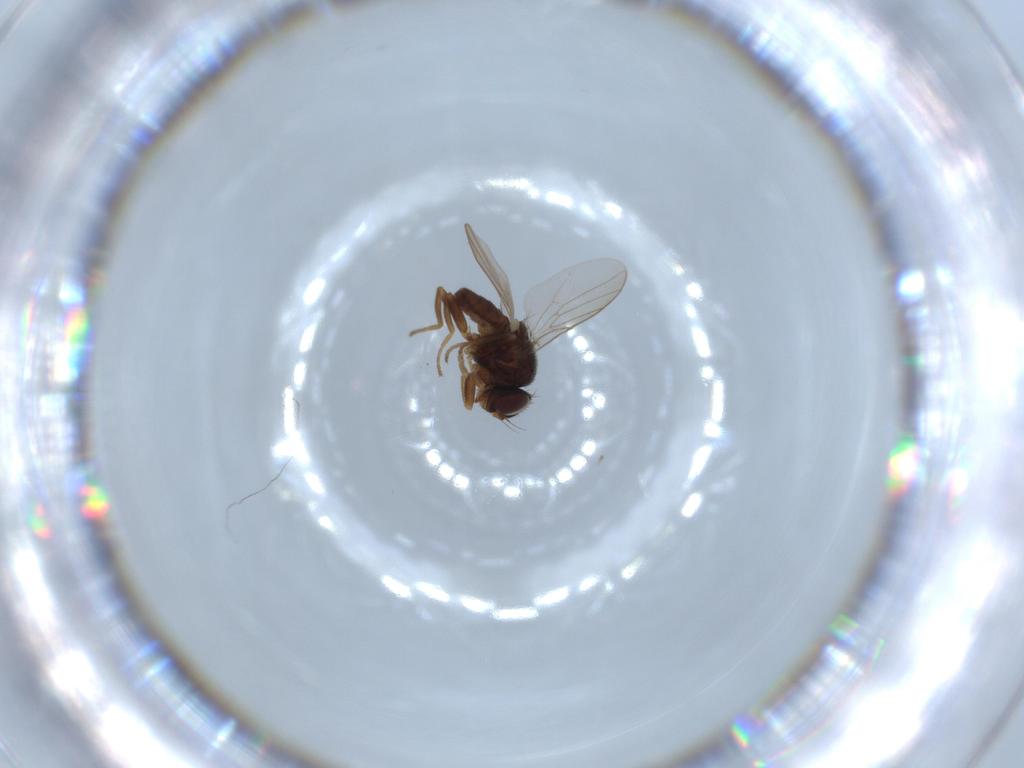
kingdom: Animalia
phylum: Arthropoda
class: Insecta
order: Diptera
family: Chloropidae
